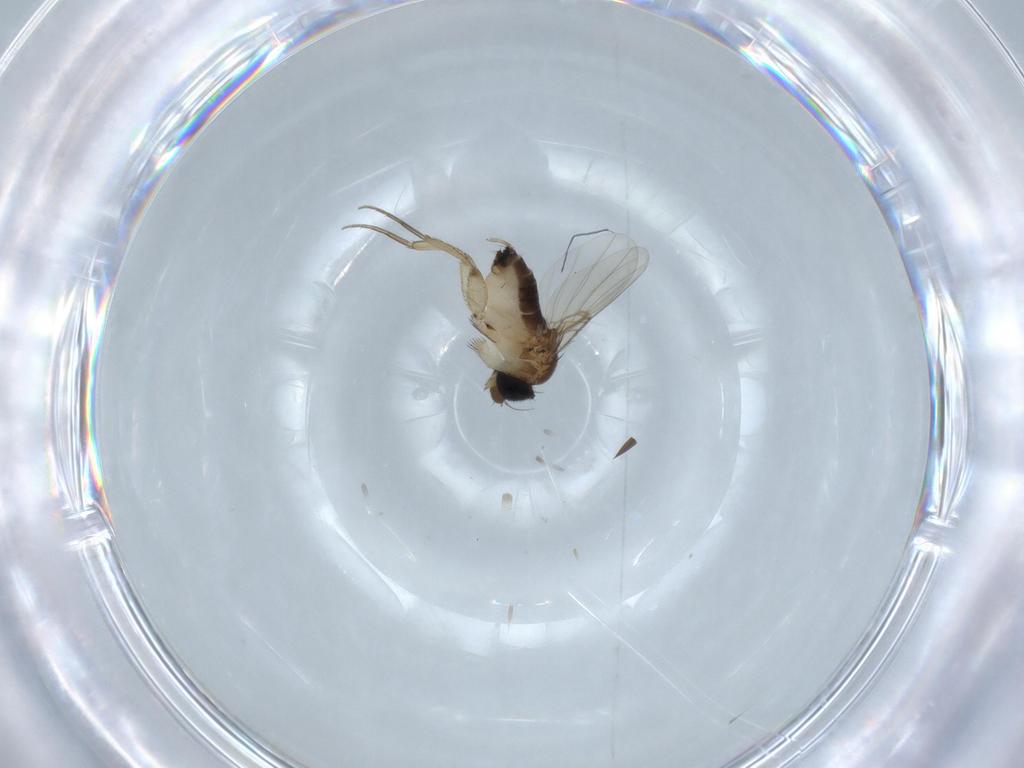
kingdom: Animalia
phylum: Arthropoda
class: Insecta
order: Diptera
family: Phoridae
